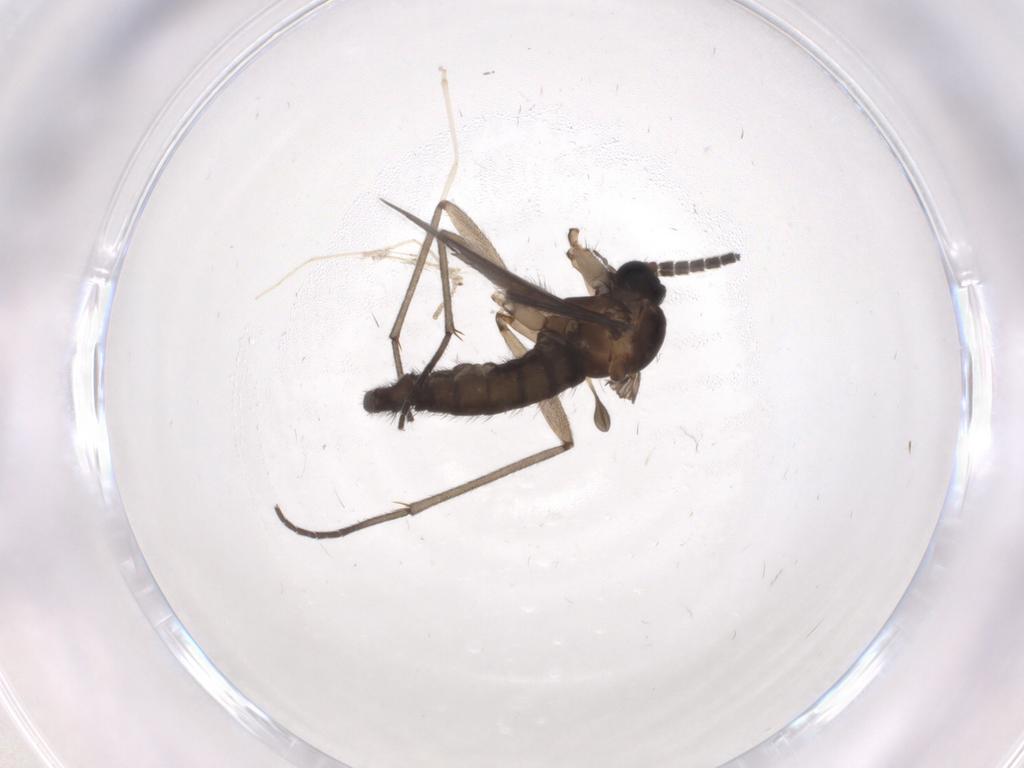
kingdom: Animalia
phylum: Arthropoda
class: Insecta
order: Diptera
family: Sciaridae
